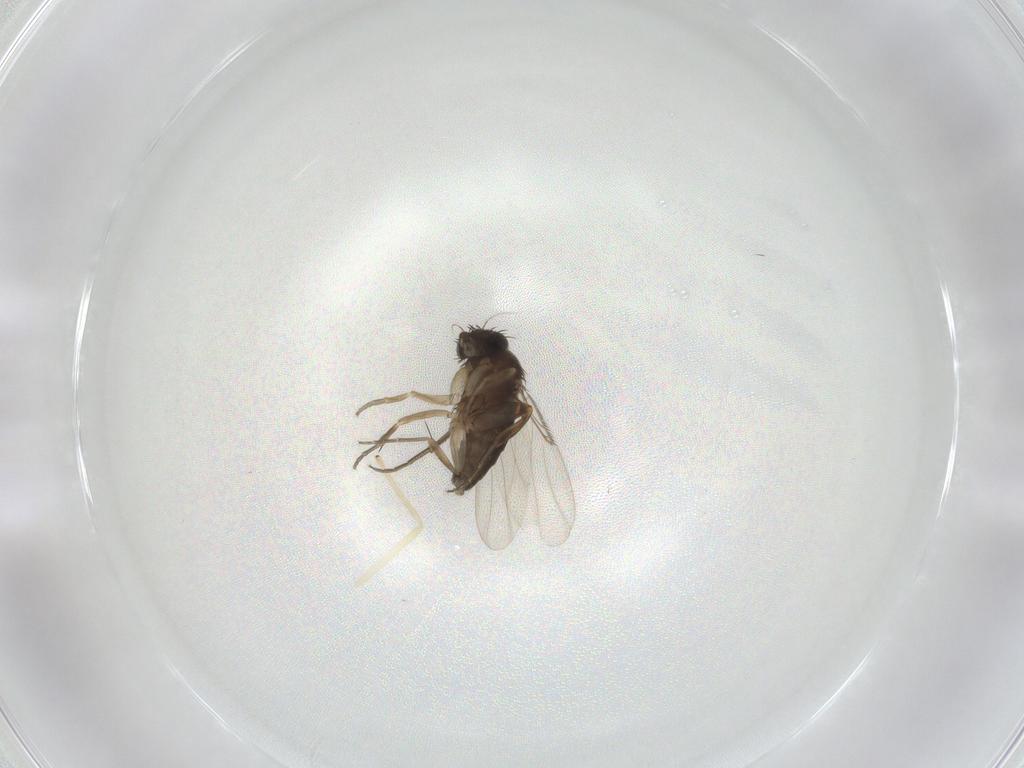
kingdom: Animalia
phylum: Arthropoda
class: Insecta
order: Diptera
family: Phoridae
